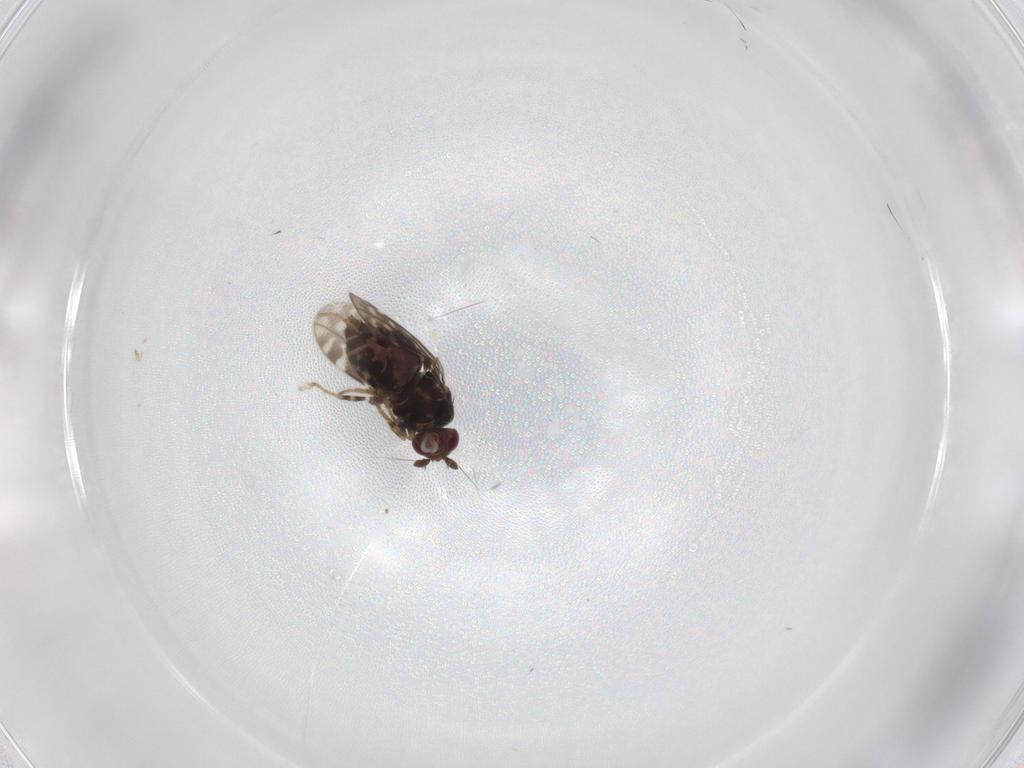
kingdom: Animalia
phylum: Arthropoda
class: Insecta
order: Diptera
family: Sphaeroceridae
